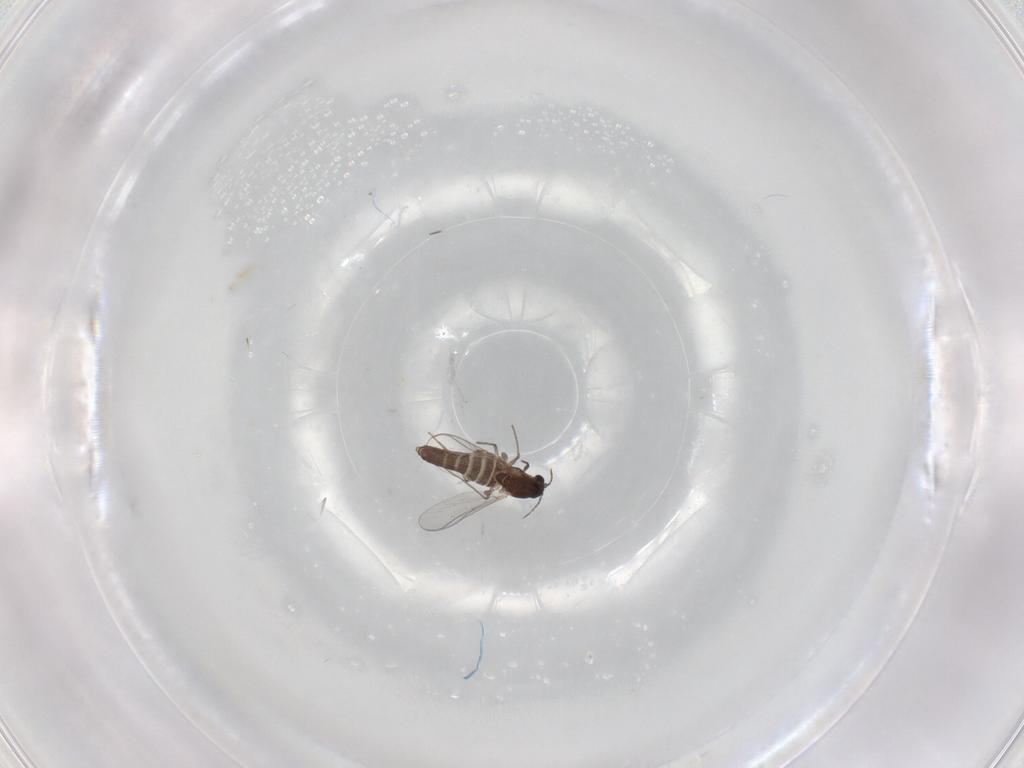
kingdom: Animalia
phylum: Arthropoda
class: Insecta
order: Diptera
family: Chironomidae
